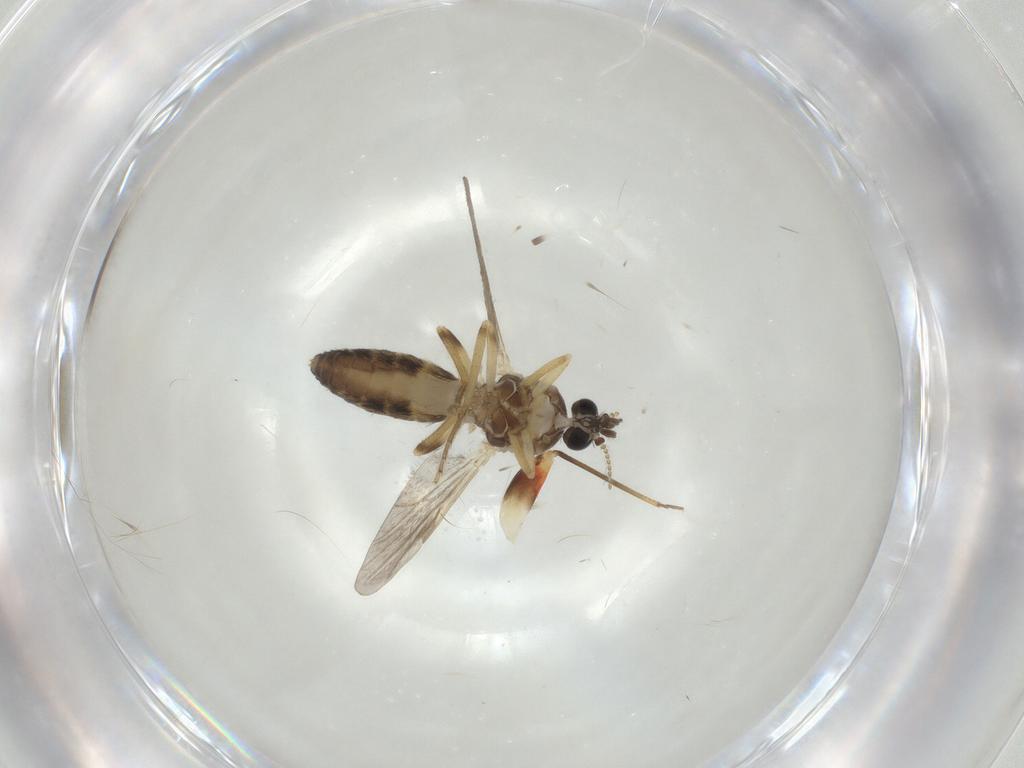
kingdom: Animalia
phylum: Arthropoda
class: Insecta
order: Diptera
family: Ceratopogonidae
